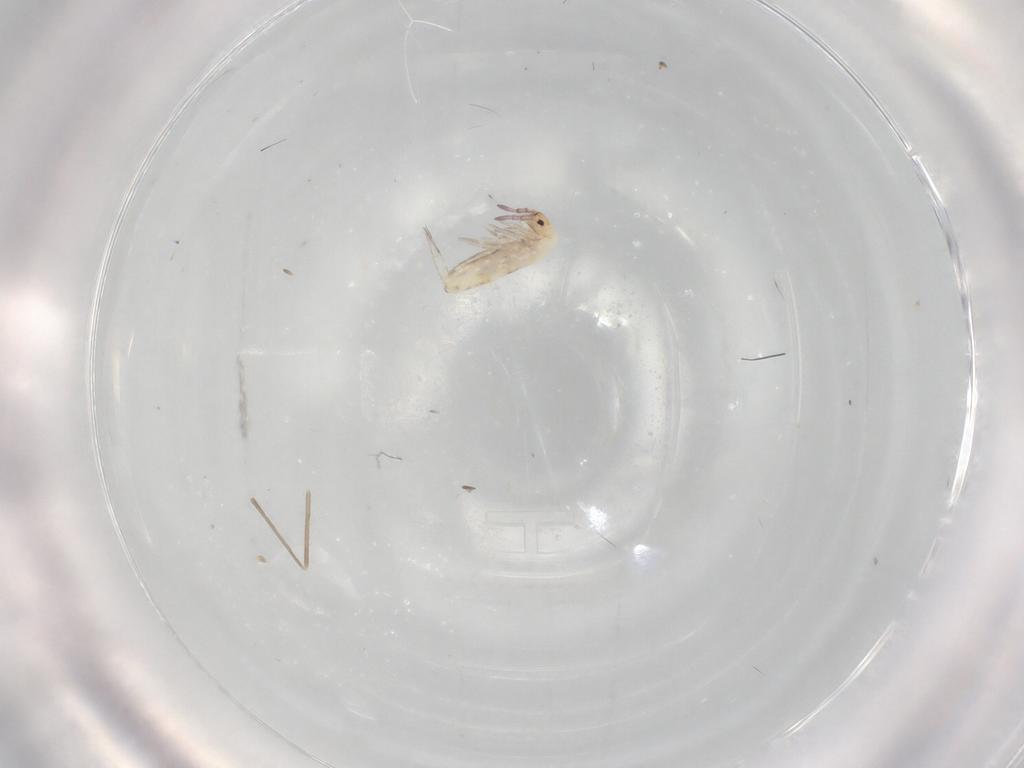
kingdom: Animalia
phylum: Arthropoda
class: Collembola
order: Entomobryomorpha
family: Entomobryidae
